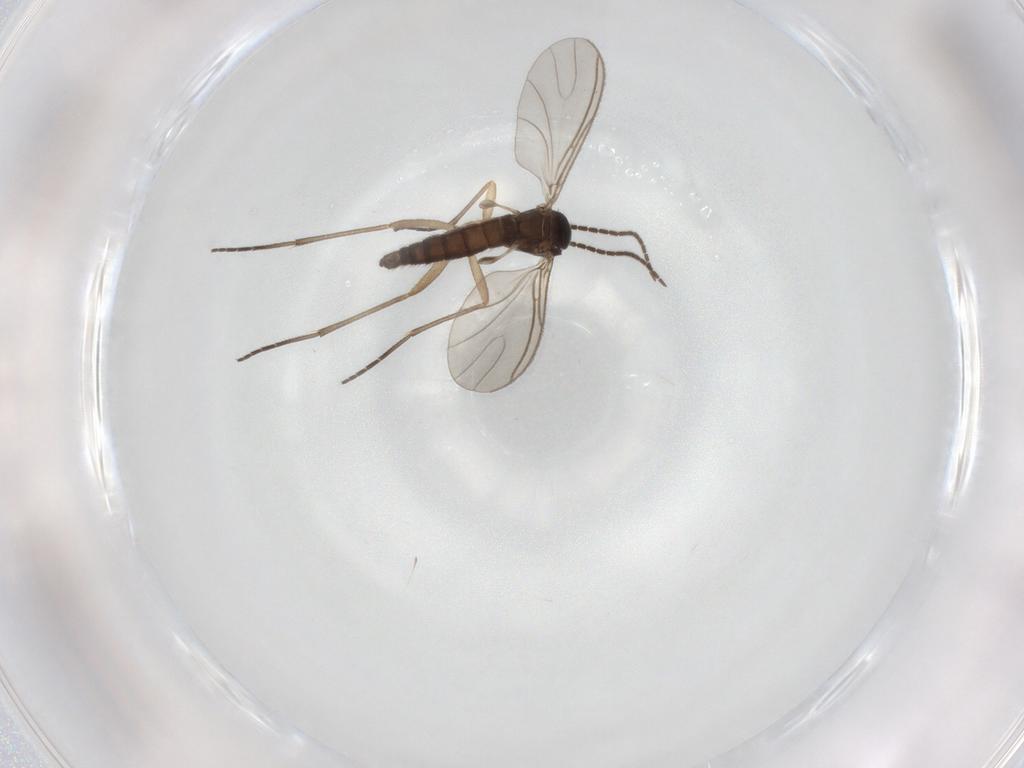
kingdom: Animalia
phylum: Arthropoda
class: Insecta
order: Diptera
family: Sciaridae
